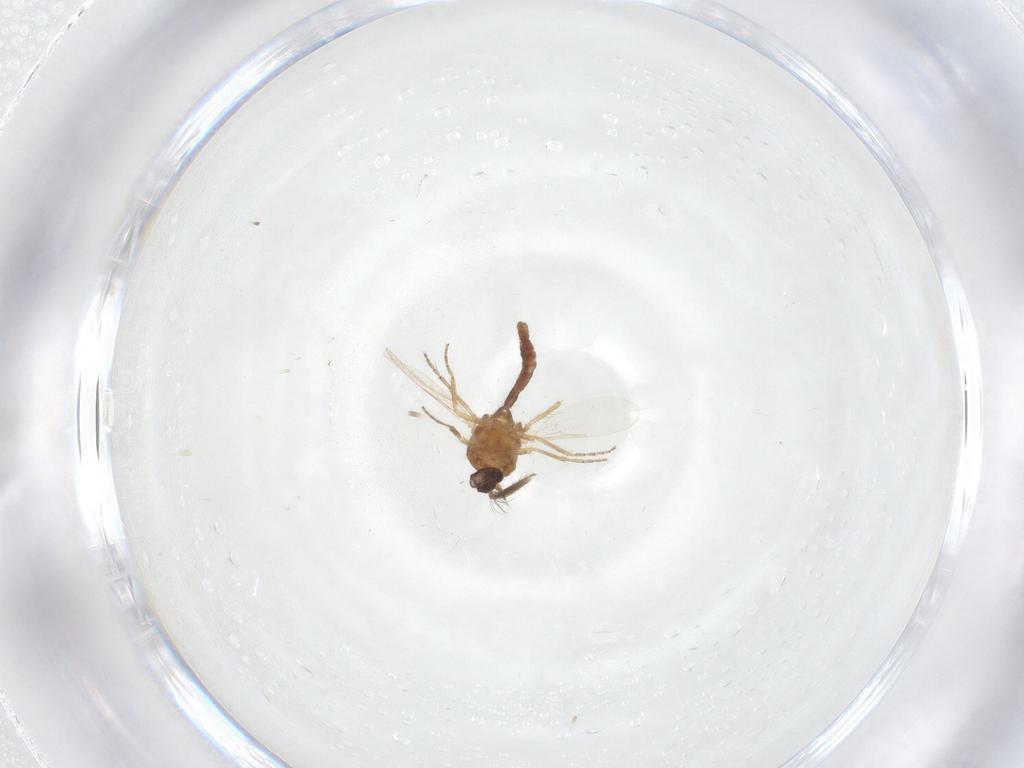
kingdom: Animalia
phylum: Arthropoda
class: Insecta
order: Diptera
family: Ceratopogonidae
